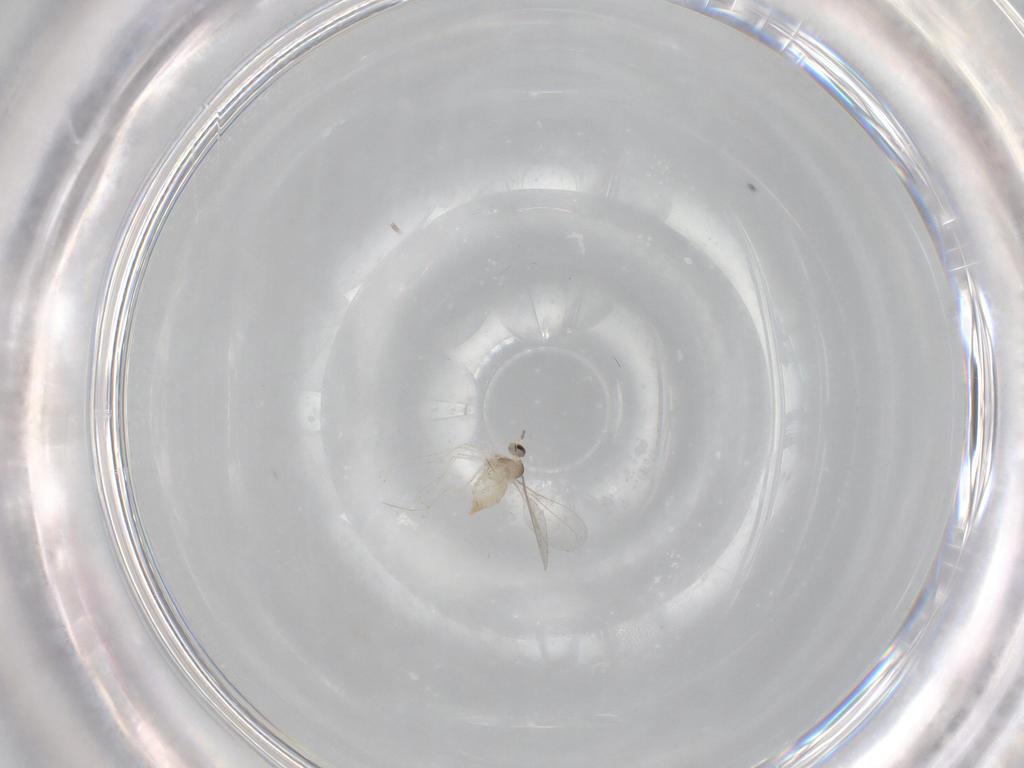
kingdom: Animalia
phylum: Arthropoda
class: Insecta
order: Diptera
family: Cecidomyiidae
